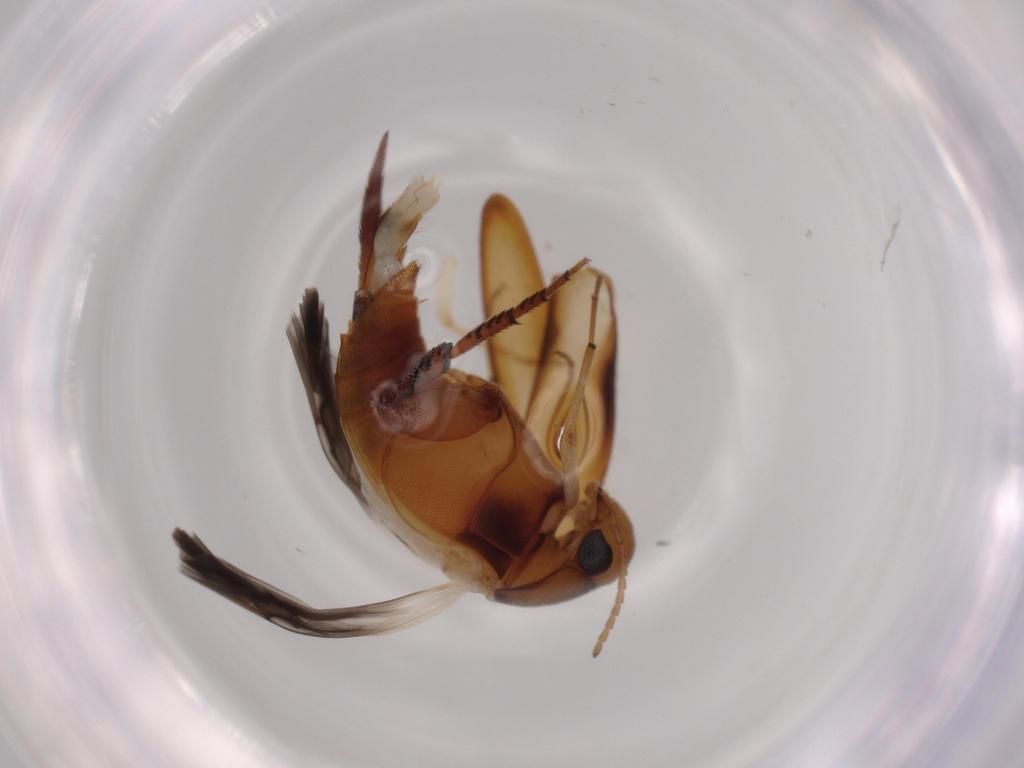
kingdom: Animalia
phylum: Arthropoda
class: Insecta
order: Coleoptera
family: Mordellidae
